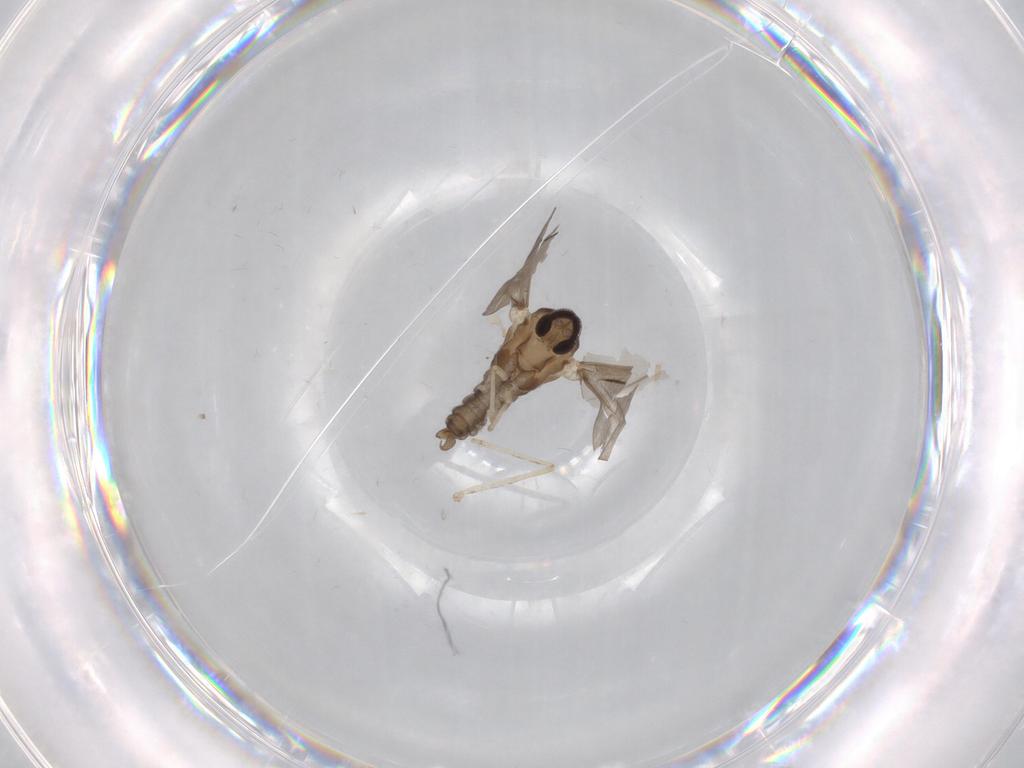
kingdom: Animalia
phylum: Arthropoda
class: Insecta
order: Diptera
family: Cecidomyiidae
